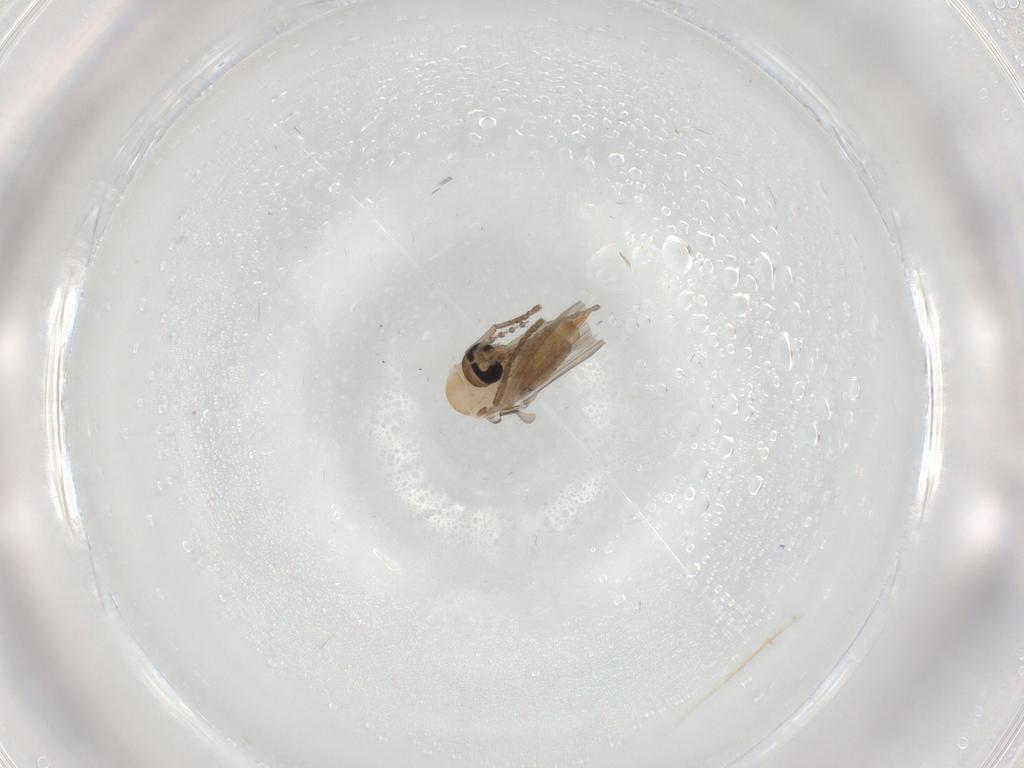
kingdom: Animalia
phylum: Arthropoda
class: Insecta
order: Diptera
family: Psychodidae
